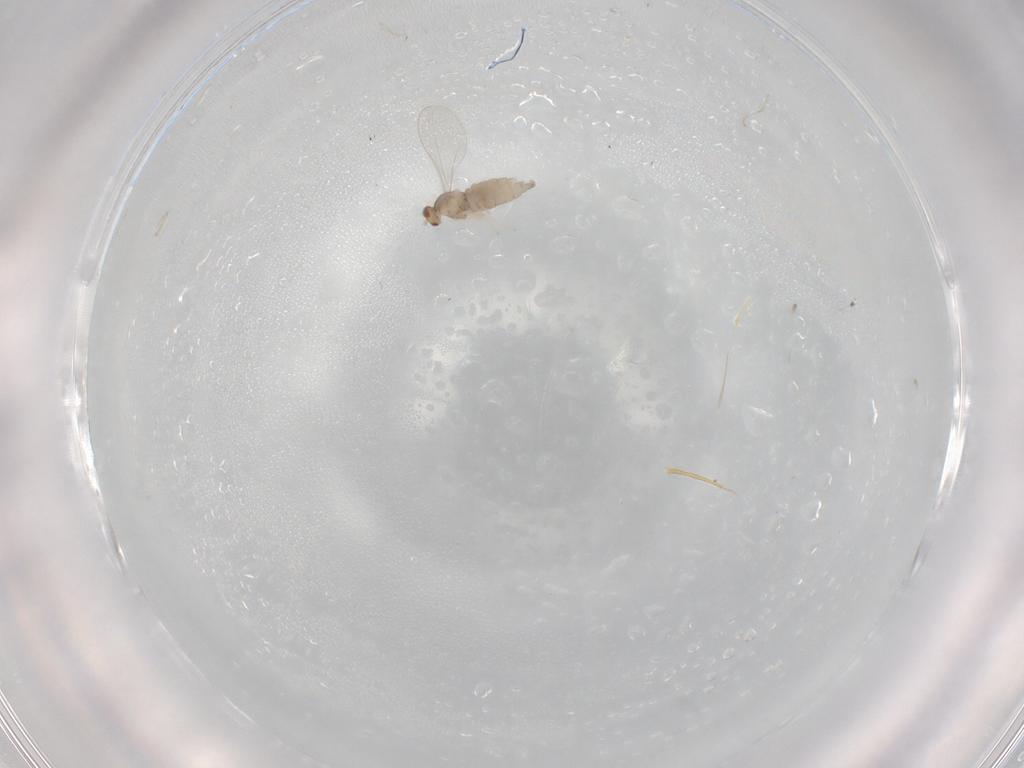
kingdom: Animalia
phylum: Arthropoda
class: Insecta
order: Diptera
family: Cecidomyiidae
